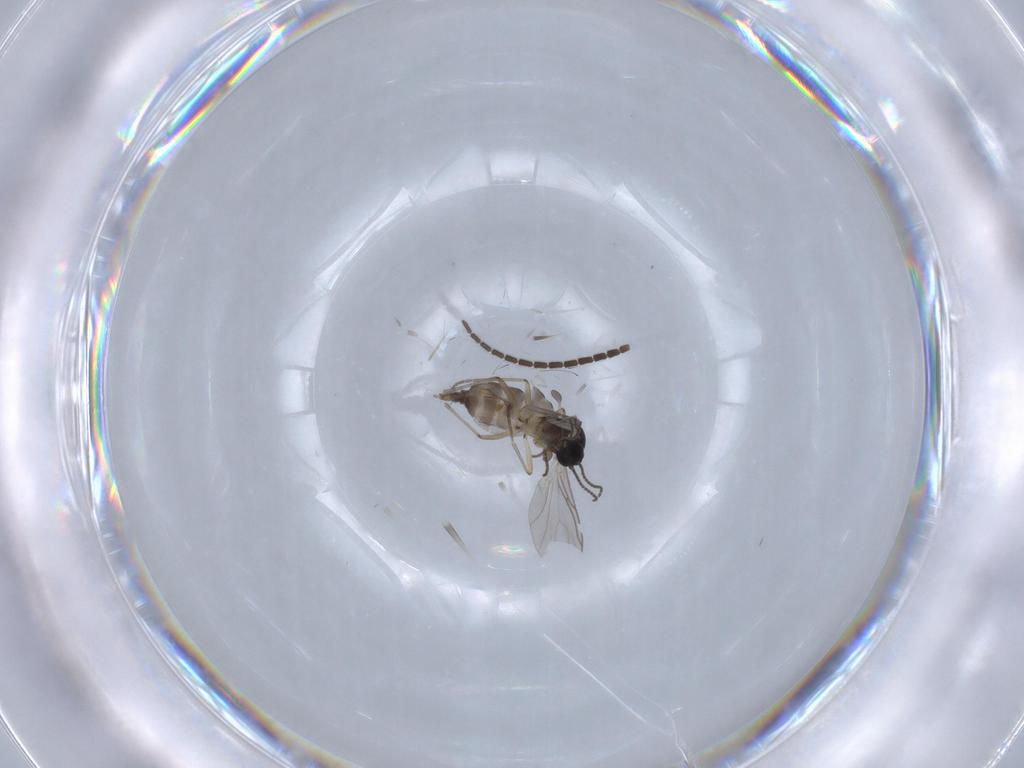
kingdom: Animalia
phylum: Arthropoda
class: Insecta
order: Diptera
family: Sciaridae
